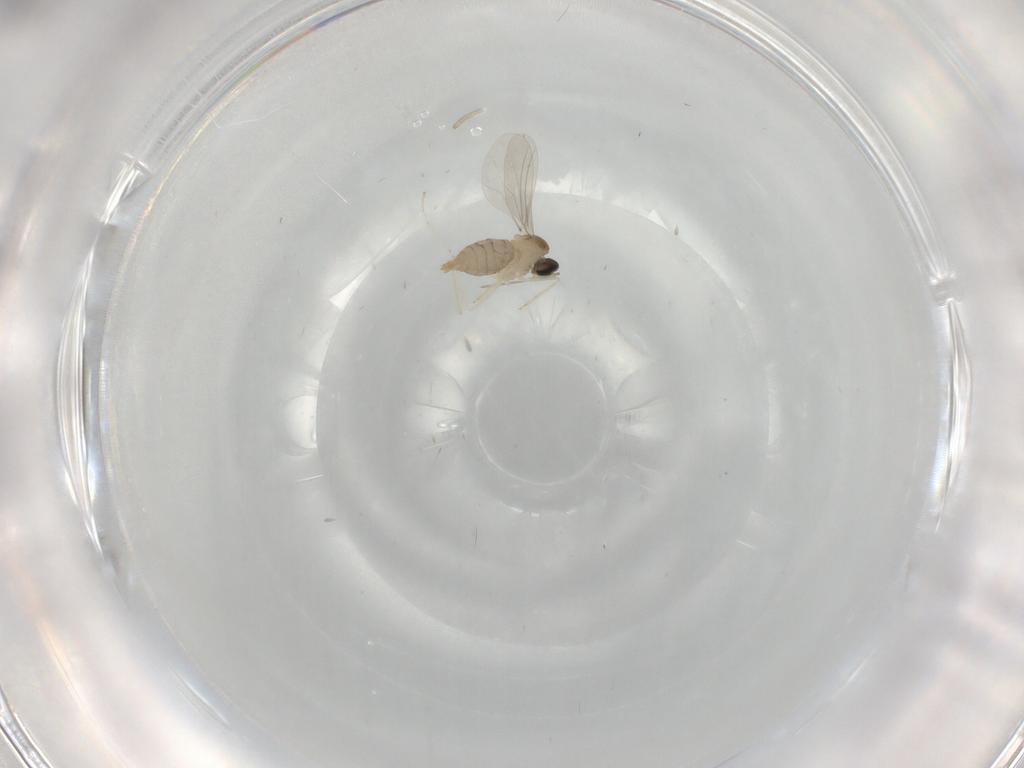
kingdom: Animalia
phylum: Arthropoda
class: Insecta
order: Diptera
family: Cecidomyiidae
